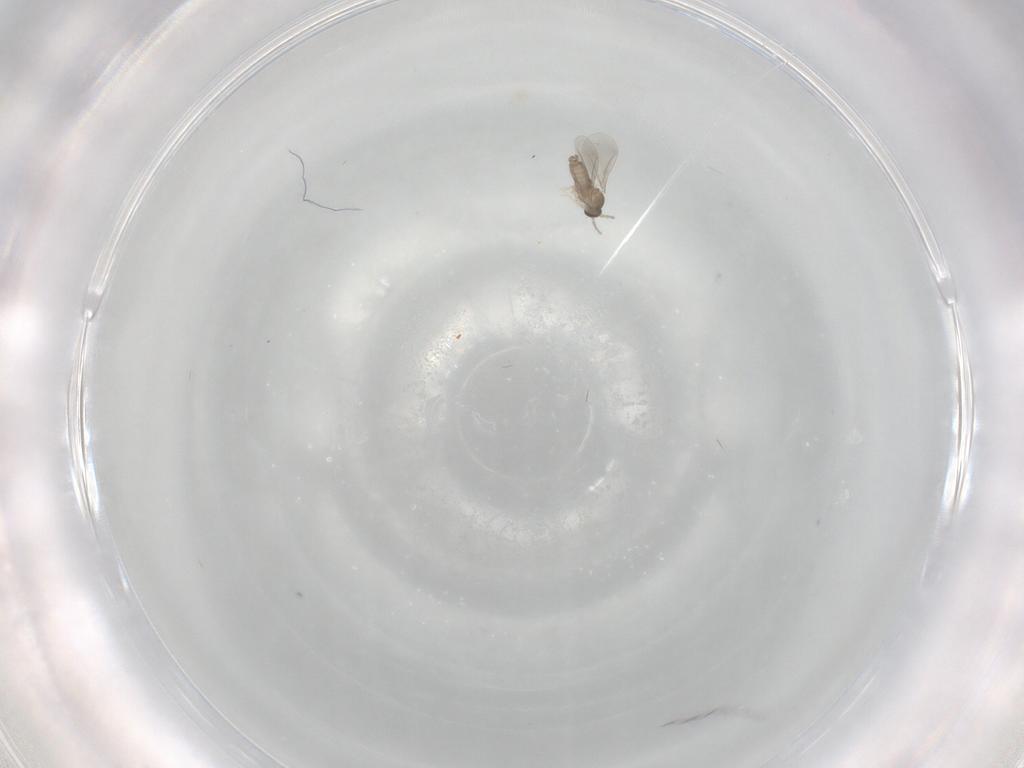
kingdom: Animalia
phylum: Arthropoda
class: Insecta
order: Diptera
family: Cecidomyiidae
